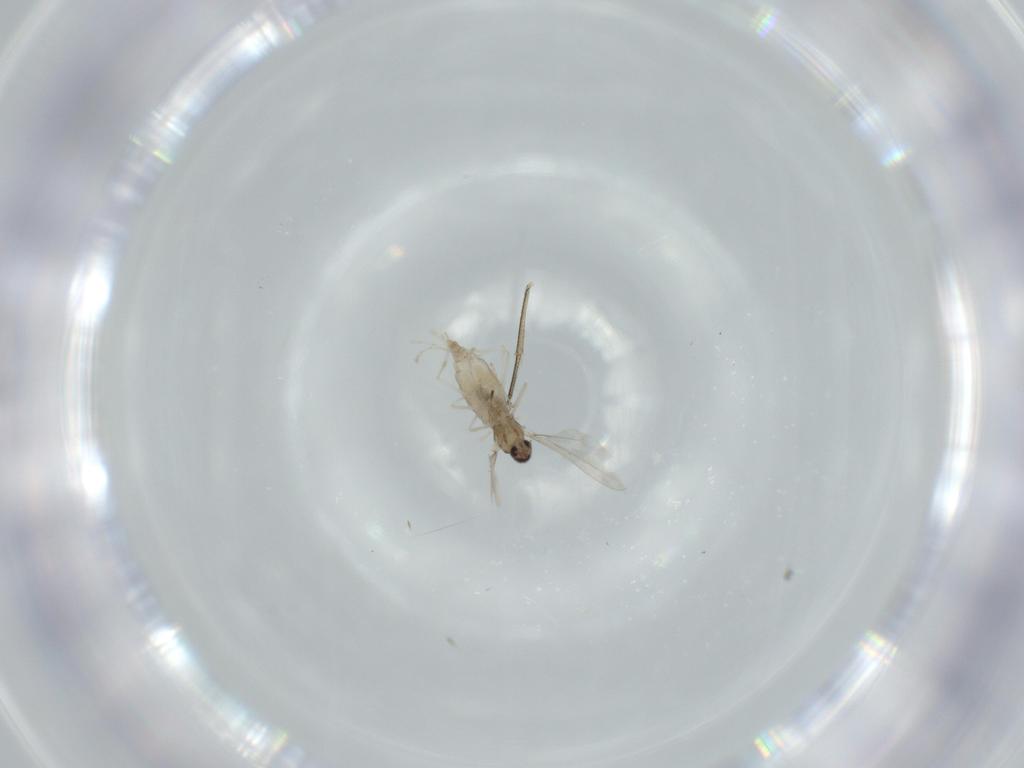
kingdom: Animalia
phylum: Arthropoda
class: Insecta
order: Diptera
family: Cecidomyiidae
